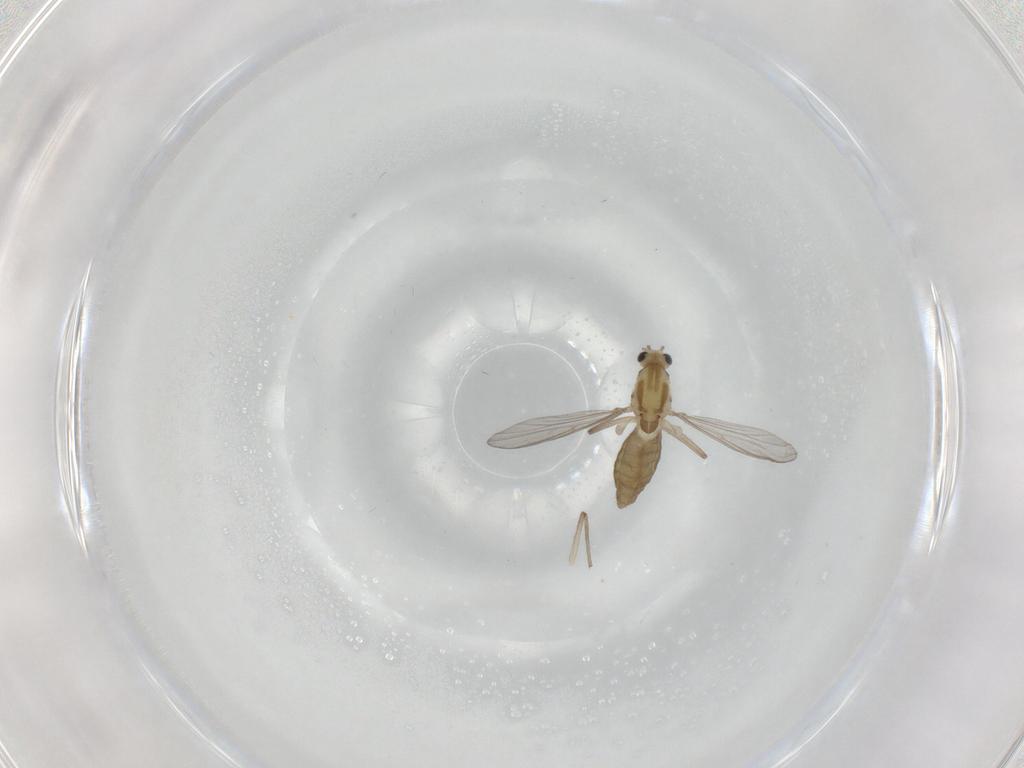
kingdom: Animalia
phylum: Arthropoda
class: Insecta
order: Diptera
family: Chironomidae
